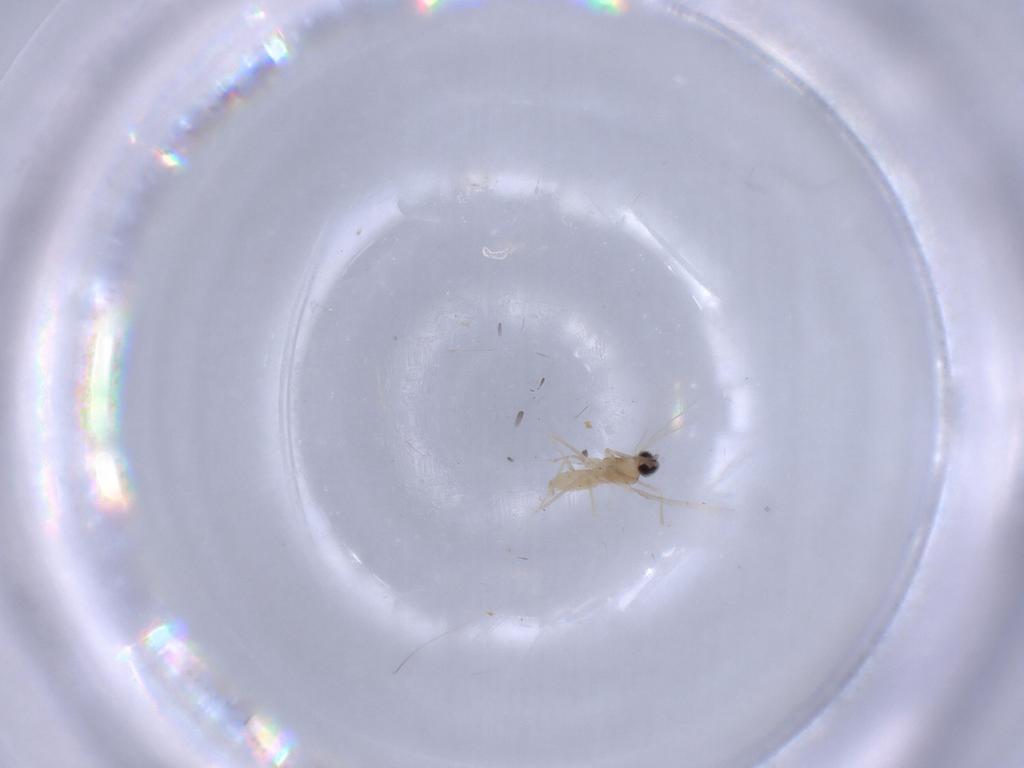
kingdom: Animalia
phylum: Arthropoda
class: Insecta
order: Diptera
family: Cecidomyiidae
